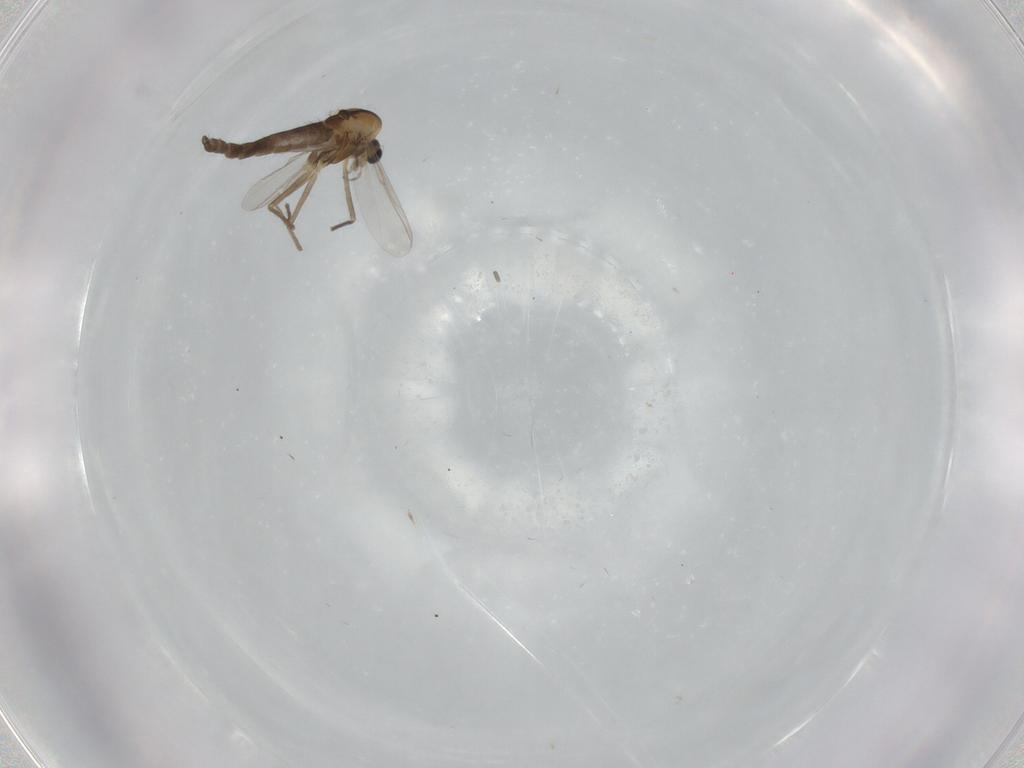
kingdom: Animalia
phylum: Arthropoda
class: Insecta
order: Diptera
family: Chironomidae
